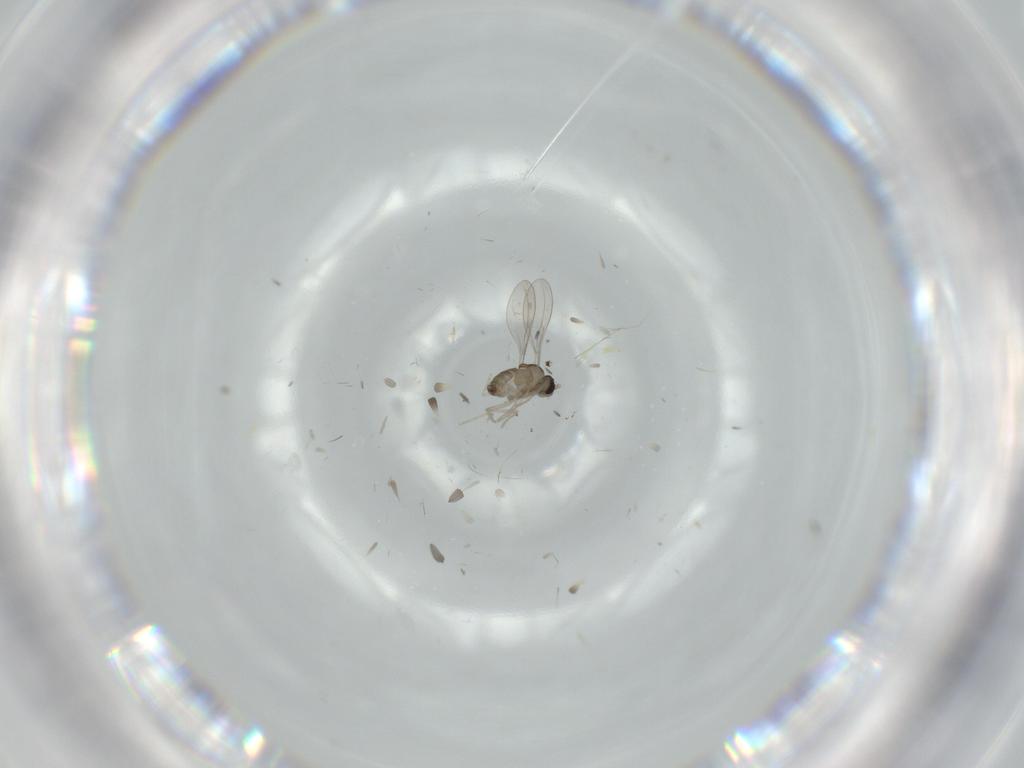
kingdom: Animalia
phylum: Arthropoda
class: Insecta
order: Diptera
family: Cecidomyiidae
